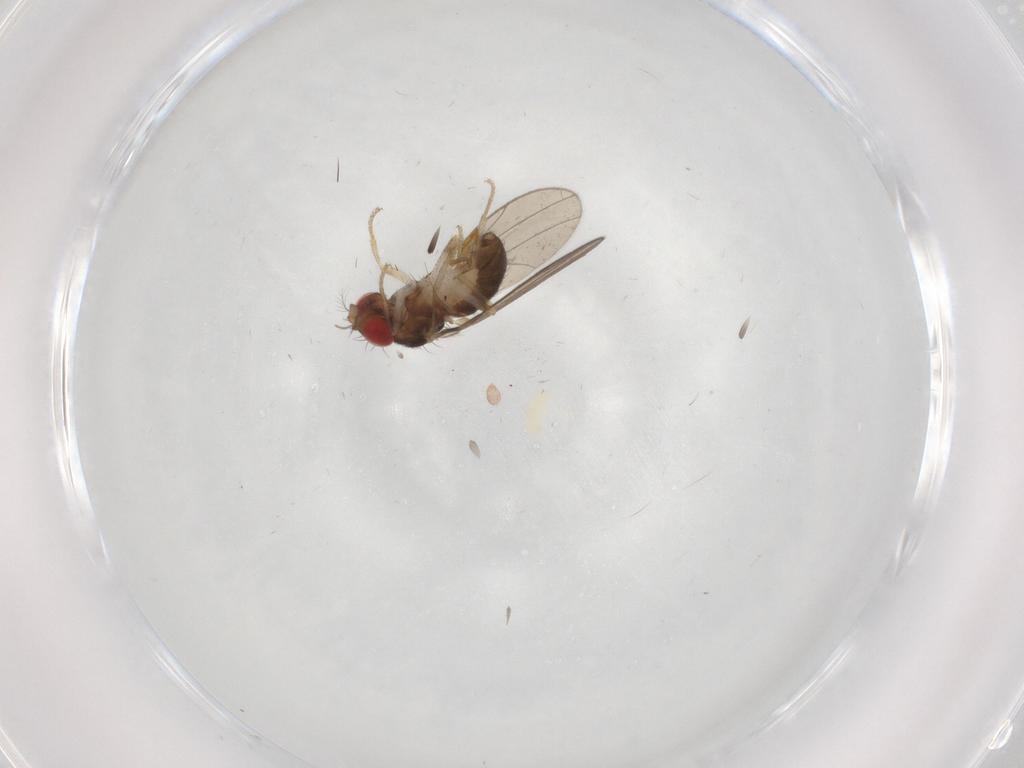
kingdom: Animalia
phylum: Arthropoda
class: Insecta
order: Diptera
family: Phoridae
